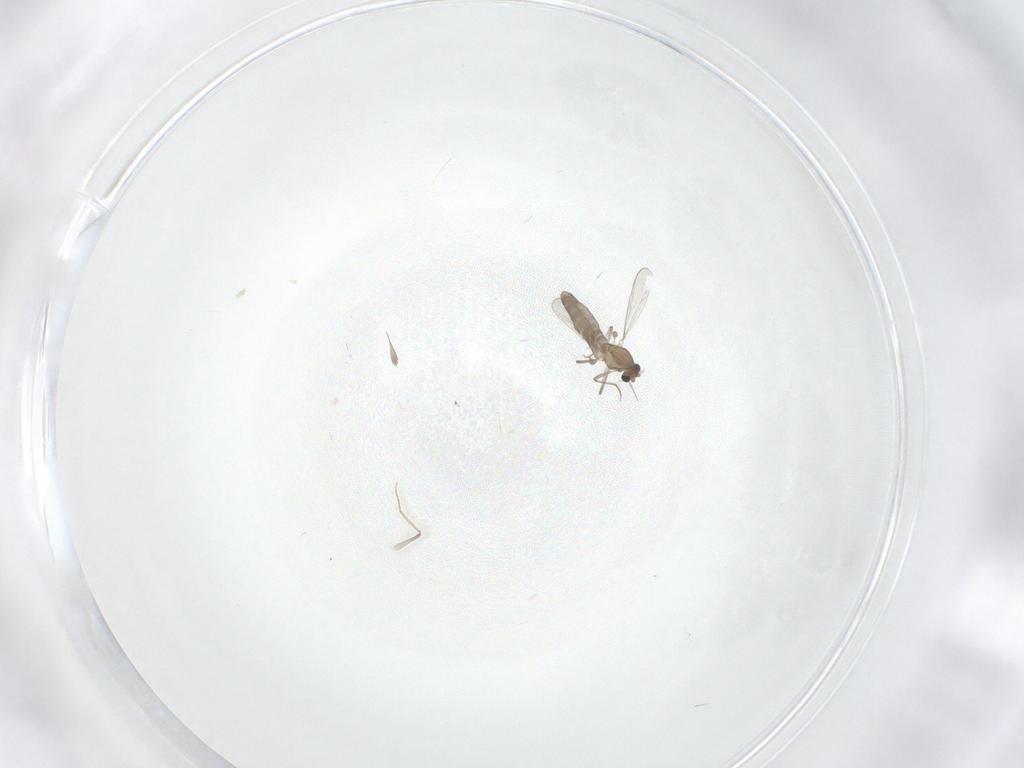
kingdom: Animalia
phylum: Arthropoda
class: Insecta
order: Diptera
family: Chironomidae
